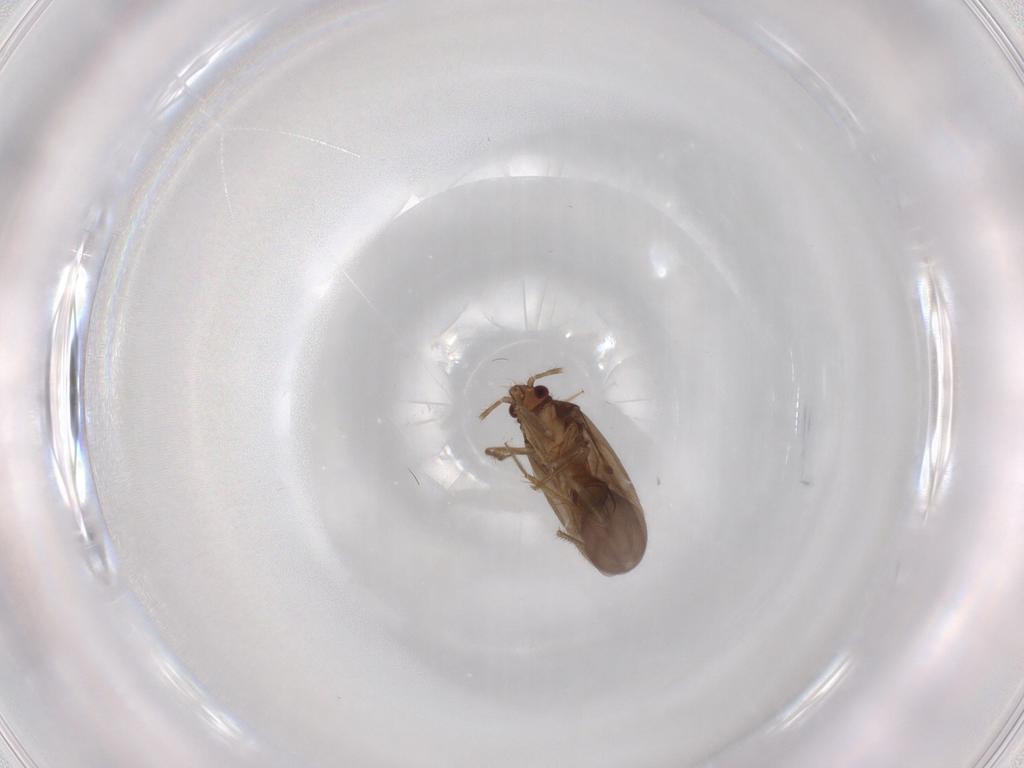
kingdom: Animalia
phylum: Arthropoda
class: Insecta
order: Hemiptera
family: Ceratocombidae
